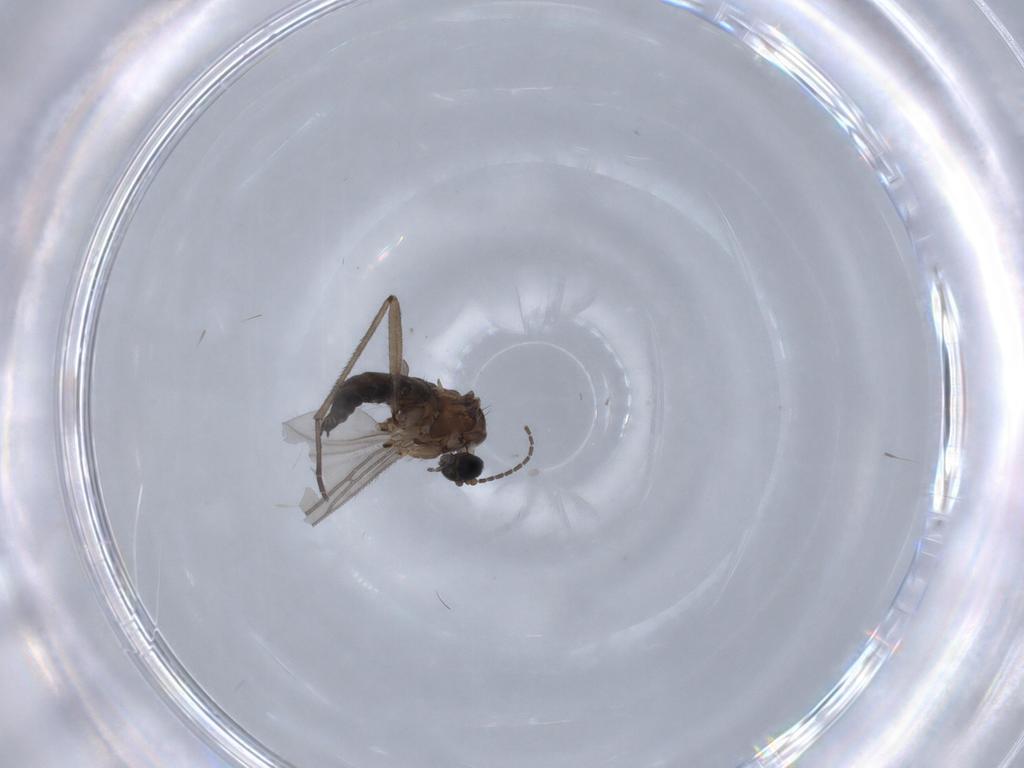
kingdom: Animalia
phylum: Arthropoda
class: Insecta
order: Diptera
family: Sciaridae
